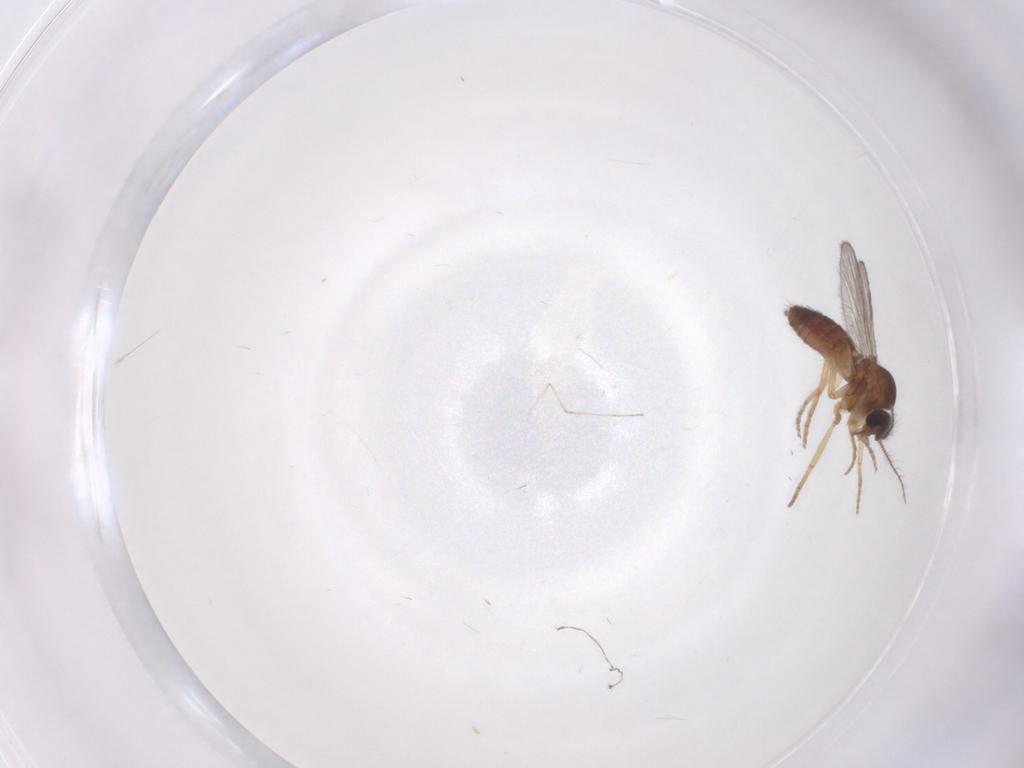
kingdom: Animalia
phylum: Arthropoda
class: Insecta
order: Diptera
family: Ceratopogonidae
